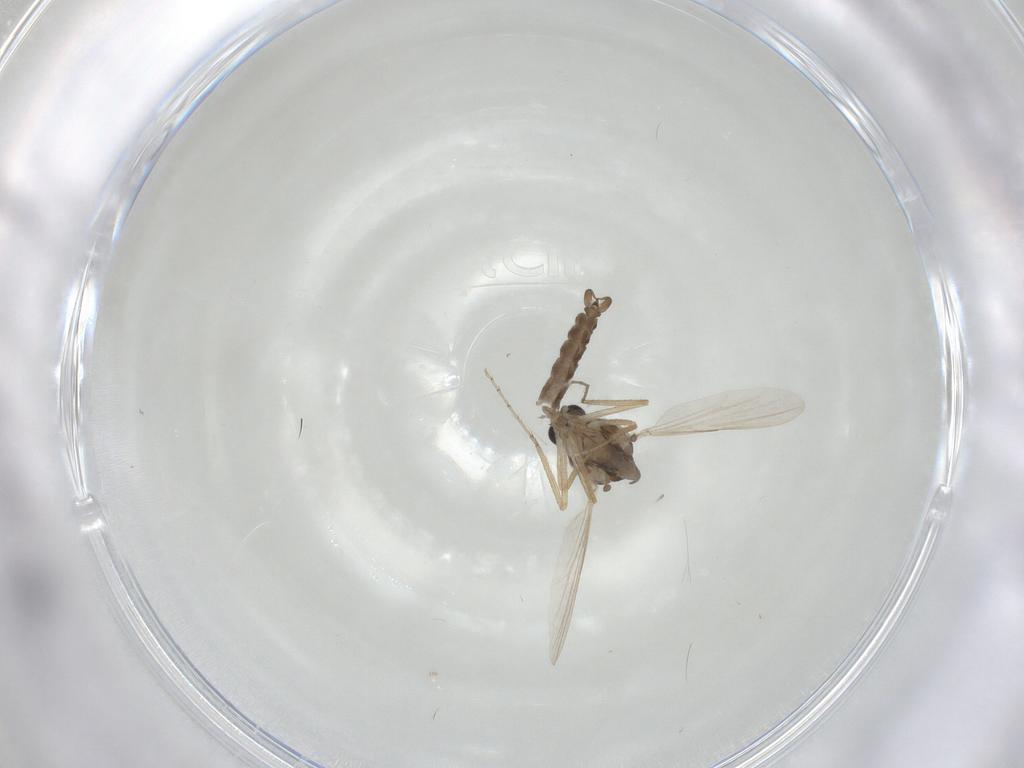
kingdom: Animalia
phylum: Arthropoda
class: Insecta
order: Diptera
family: Ceratopogonidae
